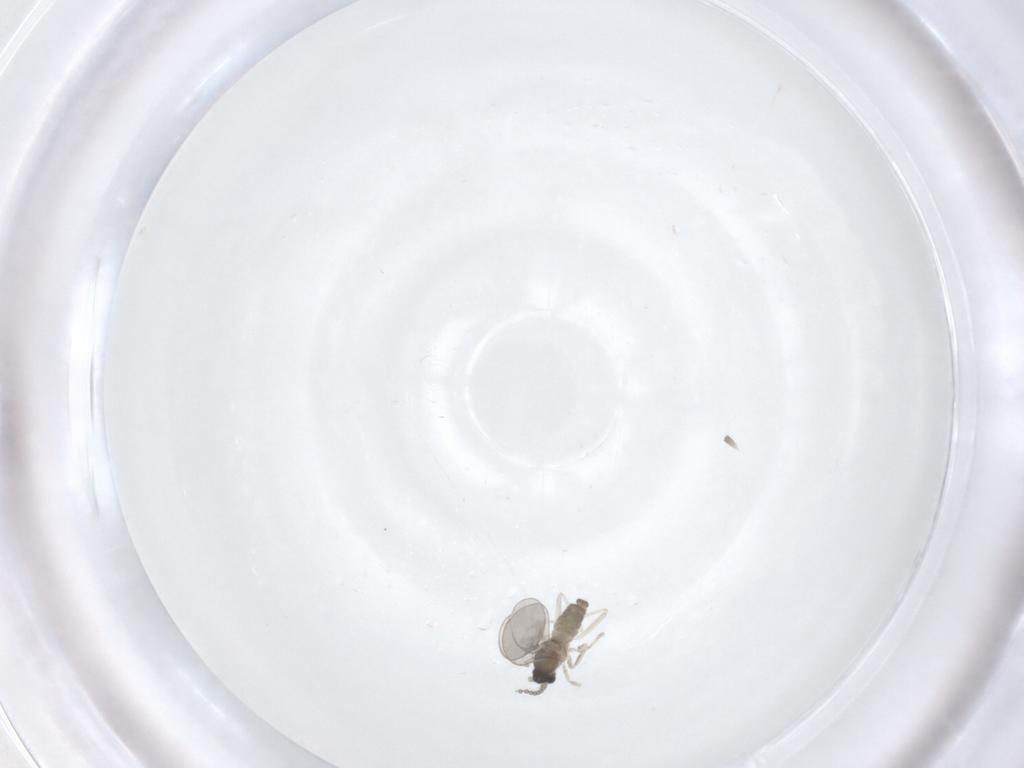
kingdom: Animalia
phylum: Arthropoda
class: Insecta
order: Diptera
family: Cecidomyiidae
